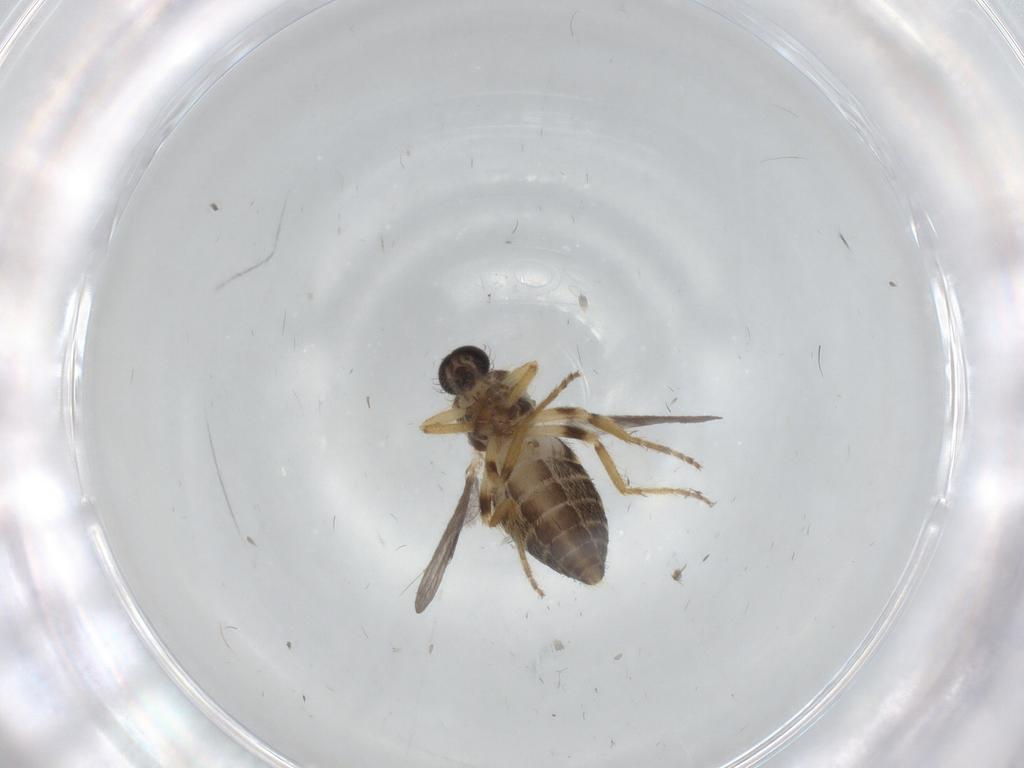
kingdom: Animalia
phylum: Arthropoda
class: Insecta
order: Diptera
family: Ceratopogonidae
